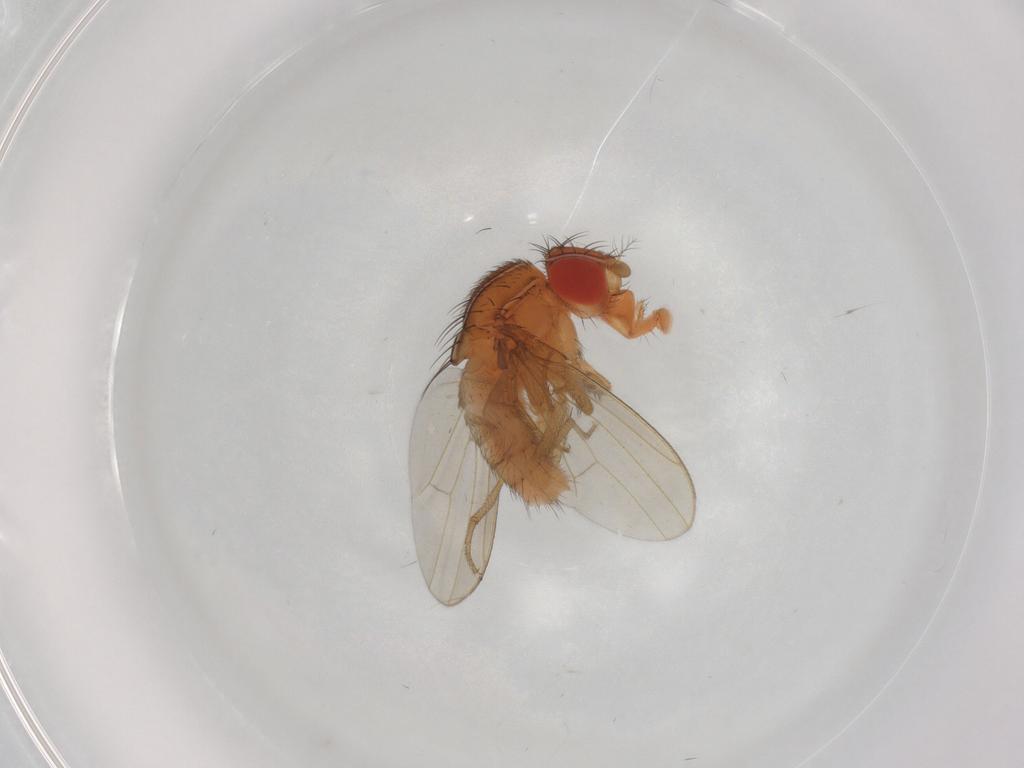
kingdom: Animalia
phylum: Arthropoda
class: Insecta
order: Diptera
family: Drosophilidae
